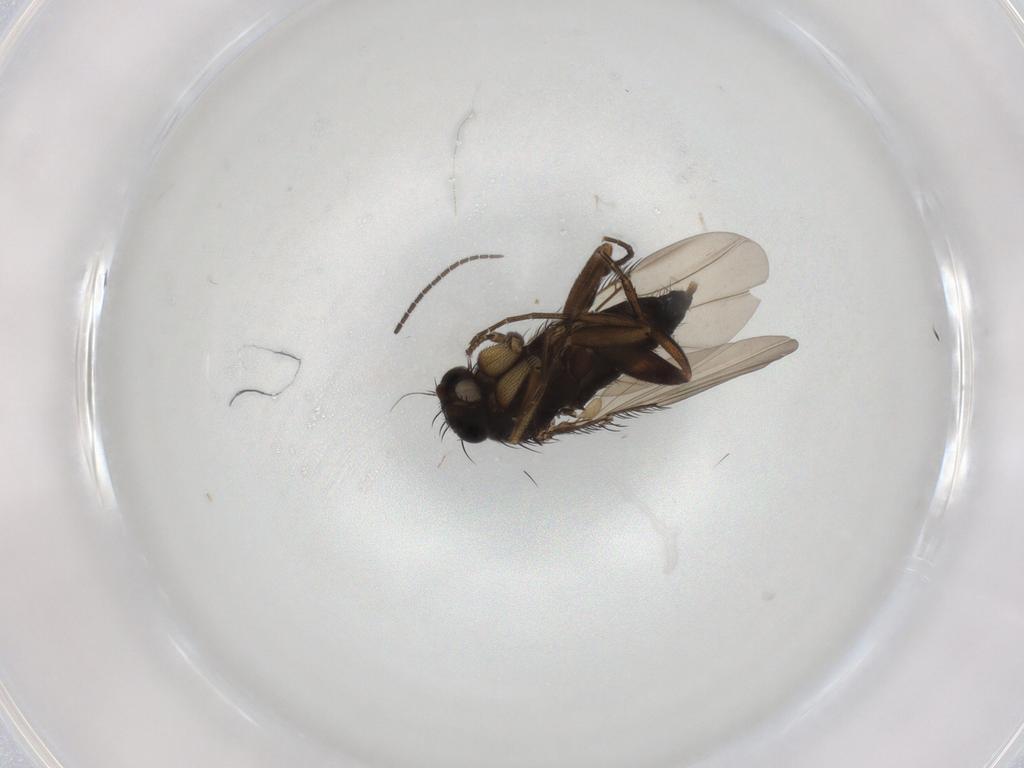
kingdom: Animalia
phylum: Arthropoda
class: Insecta
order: Diptera
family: Phoridae
